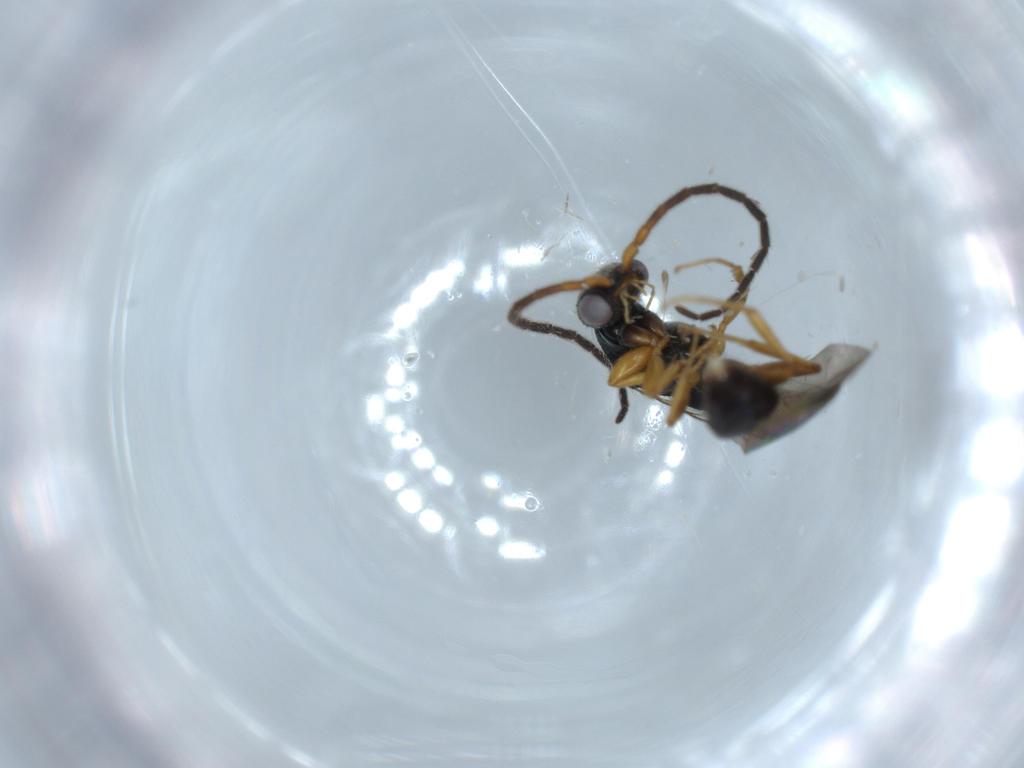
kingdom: Animalia
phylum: Arthropoda
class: Insecta
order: Hymenoptera
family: Bethylidae
